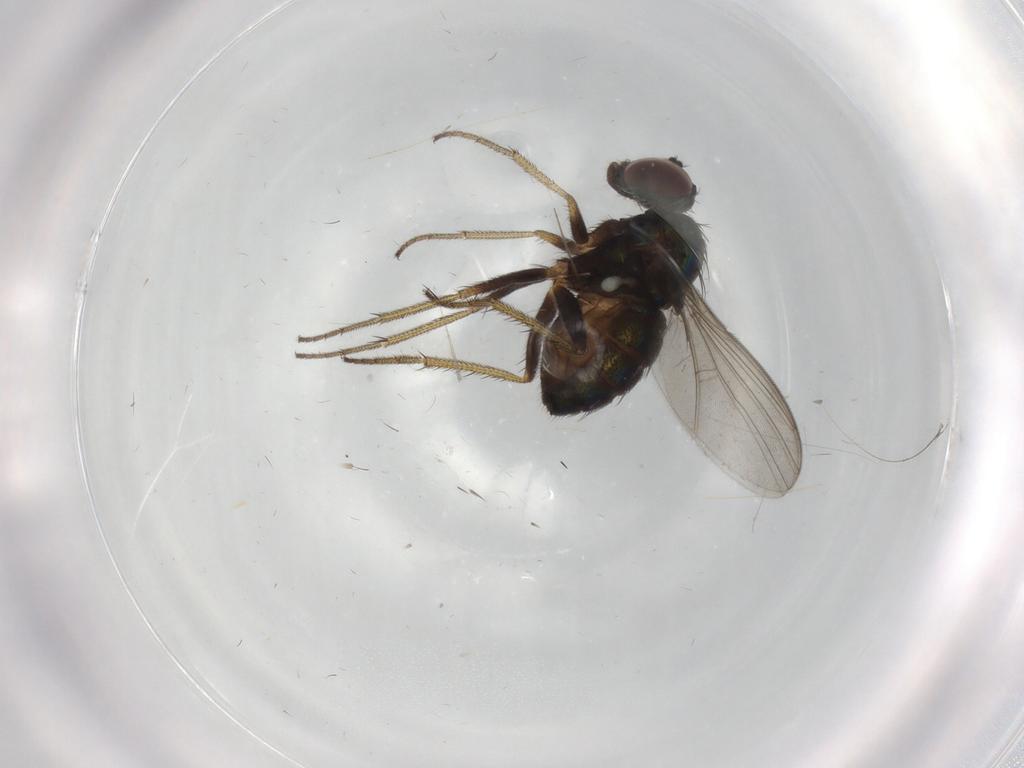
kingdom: Animalia
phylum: Arthropoda
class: Insecta
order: Diptera
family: Dolichopodidae
